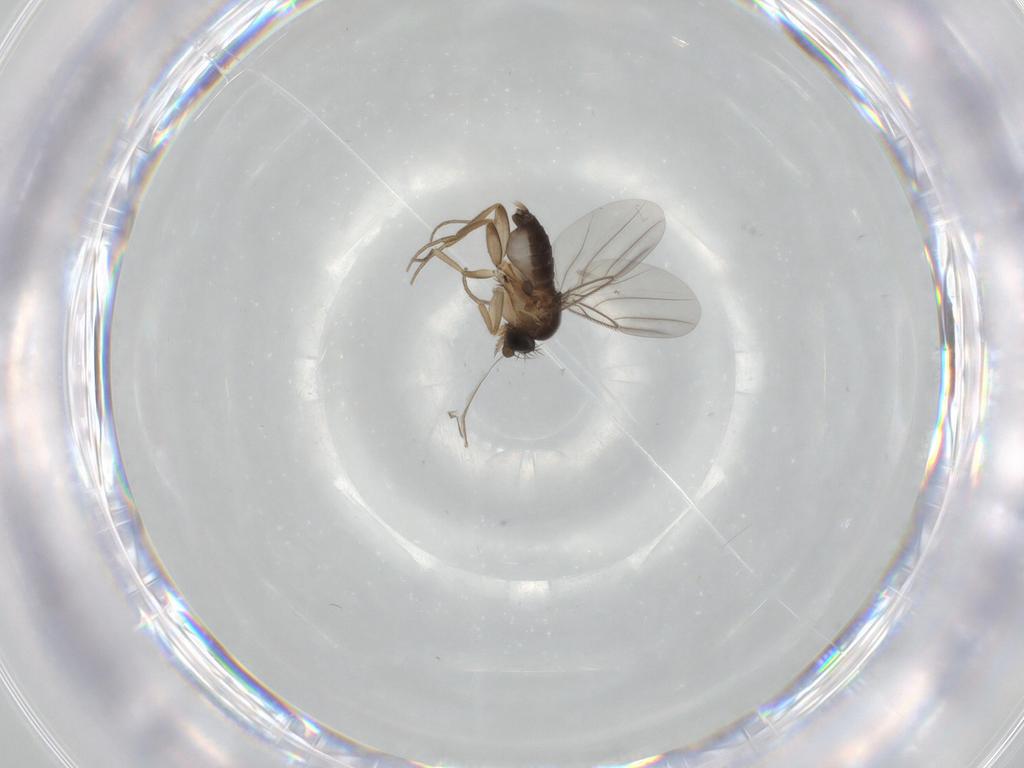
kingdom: Animalia
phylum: Arthropoda
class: Insecta
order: Diptera
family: Phoridae
